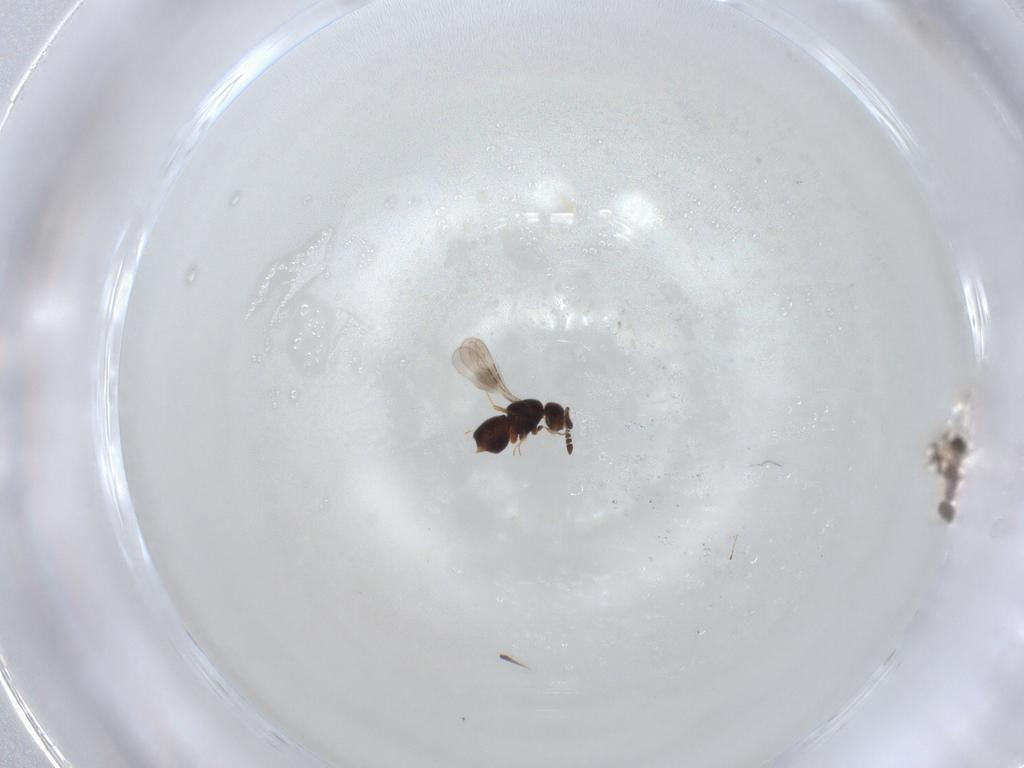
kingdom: Animalia
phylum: Arthropoda
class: Insecta
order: Hymenoptera
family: Mymaridae
